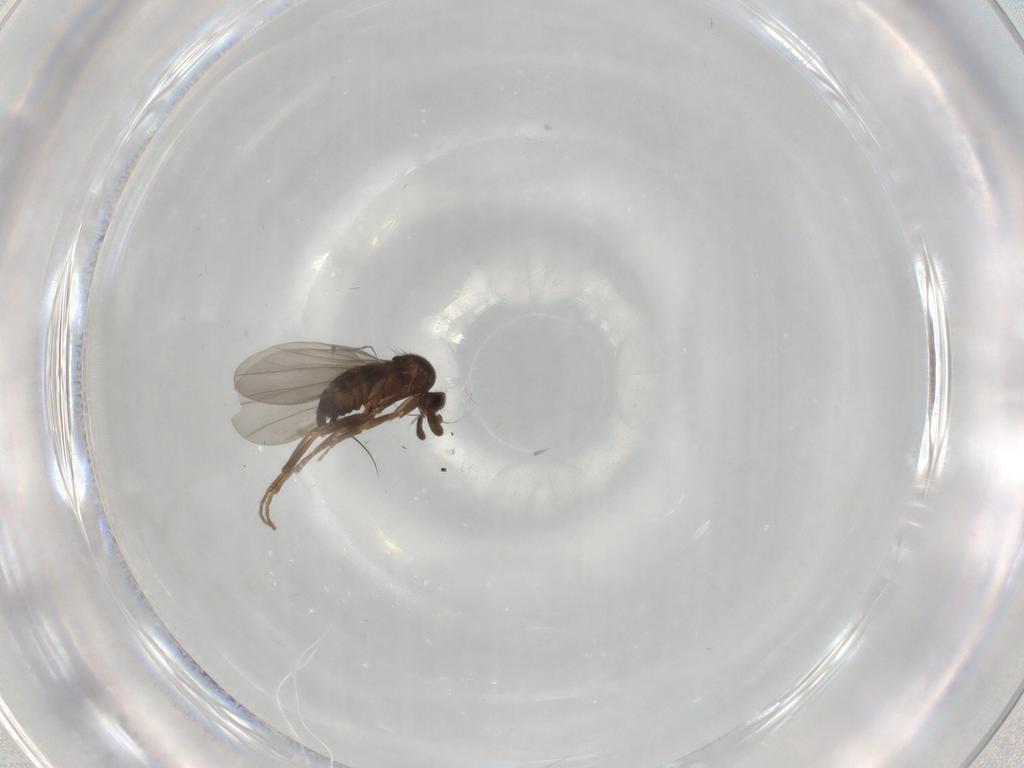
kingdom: Animalia
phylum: Arthropoda
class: Insecta
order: Diptera
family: Sciaridae
